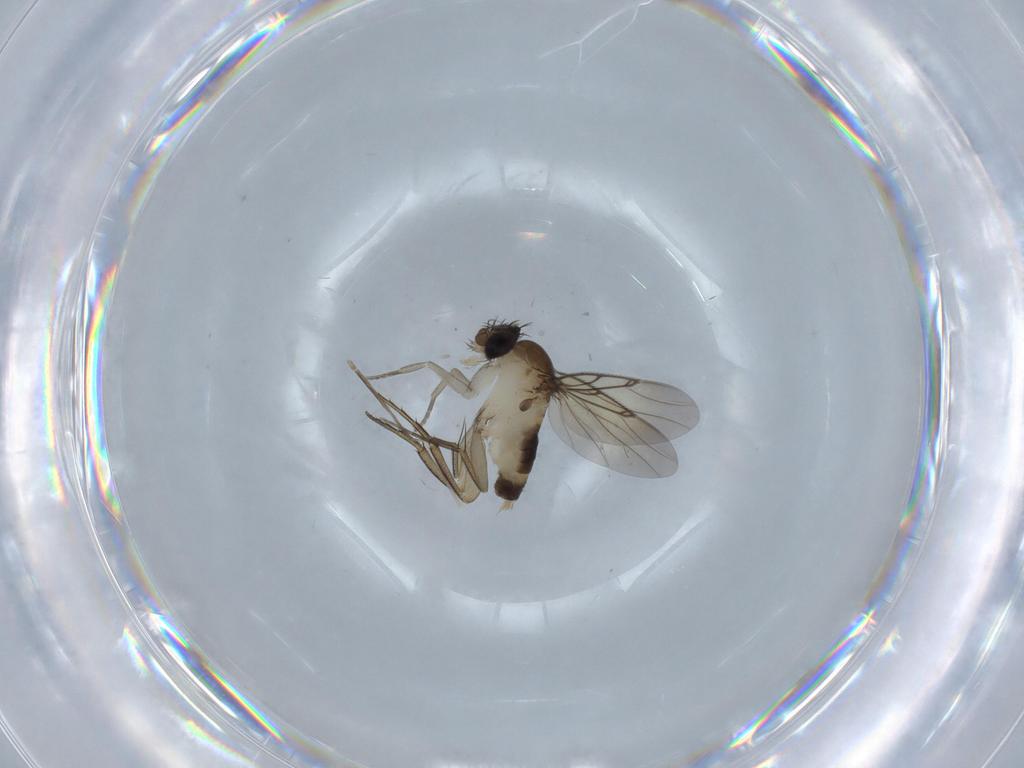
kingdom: Animalia
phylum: Arthropoda
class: Insecta
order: Diptera
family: Cecidomyiidae
